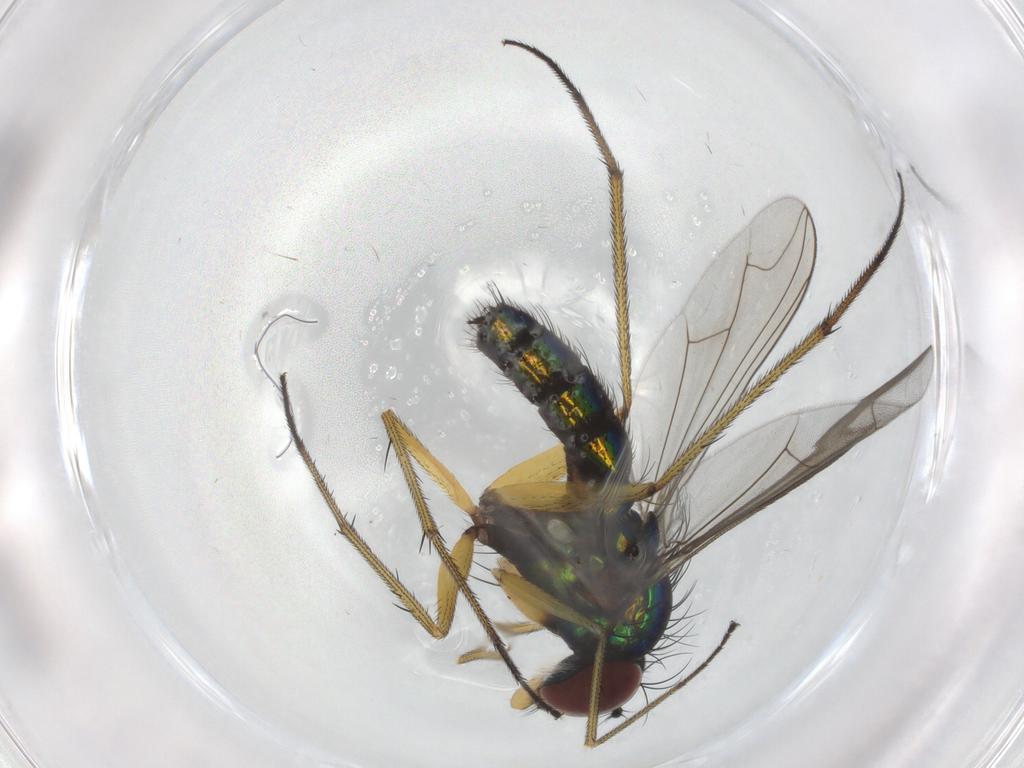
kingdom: Animalia
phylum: Arthropoda
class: Insecta
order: Diptera
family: Dolichopodidae
